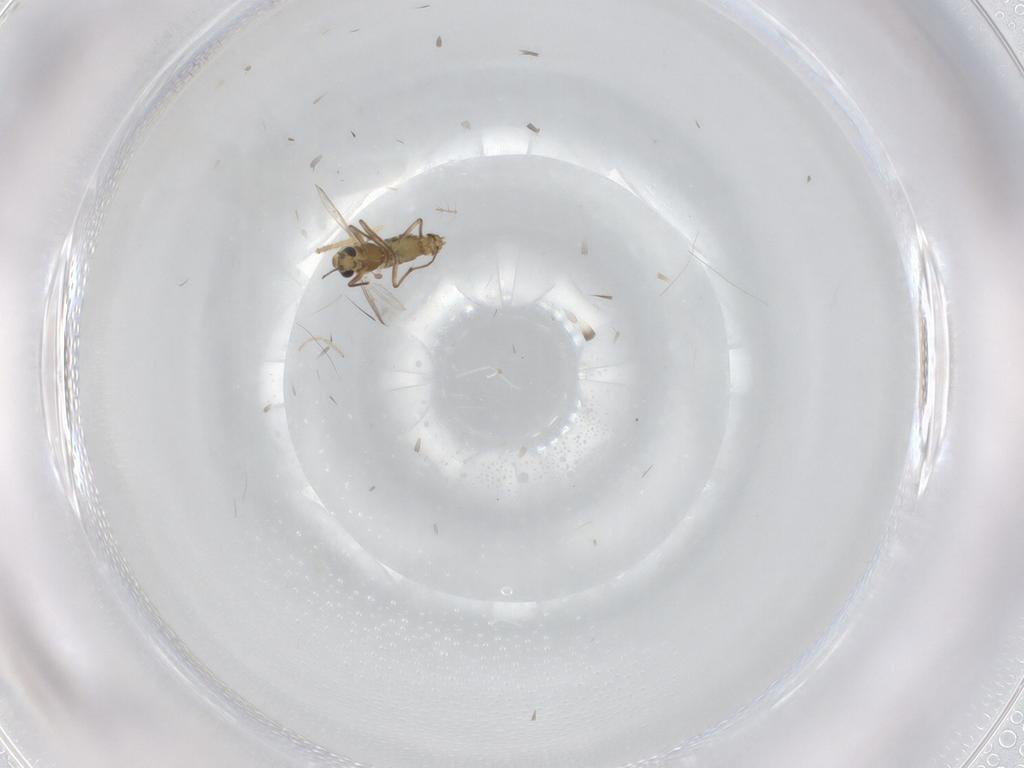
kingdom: Animalia
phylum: Arthropoda
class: Insecta
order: Diptera
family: Chironomidae
